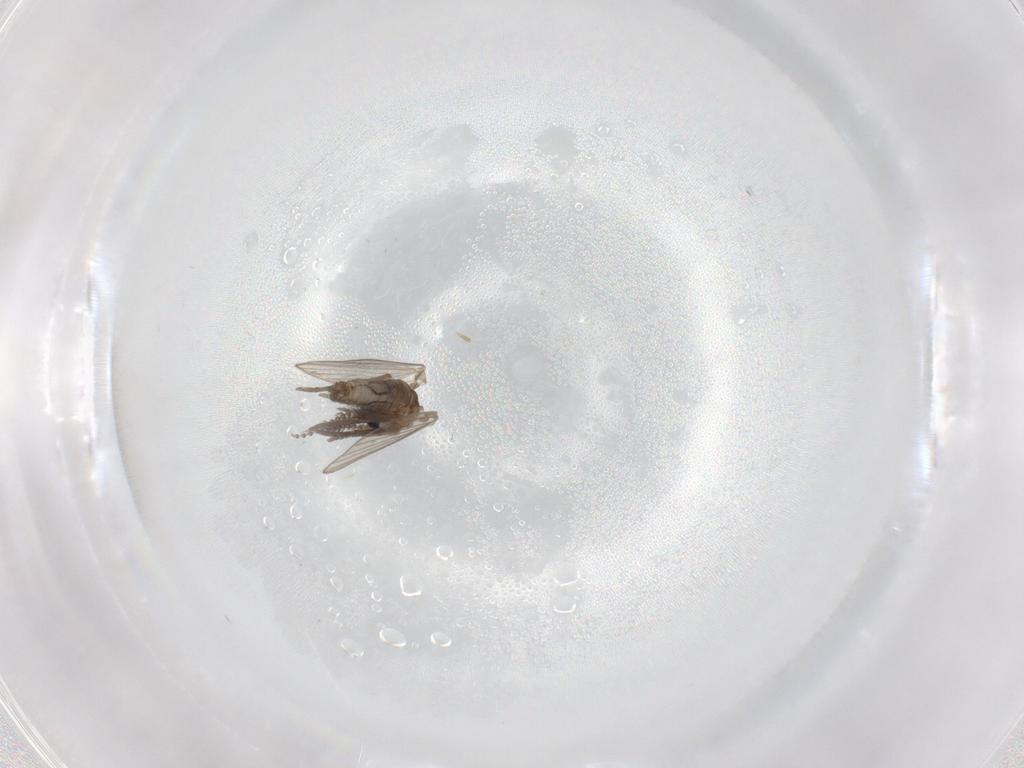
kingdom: Animalia
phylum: Arthropoda
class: Insecta
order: Diptera
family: Psychodidae
